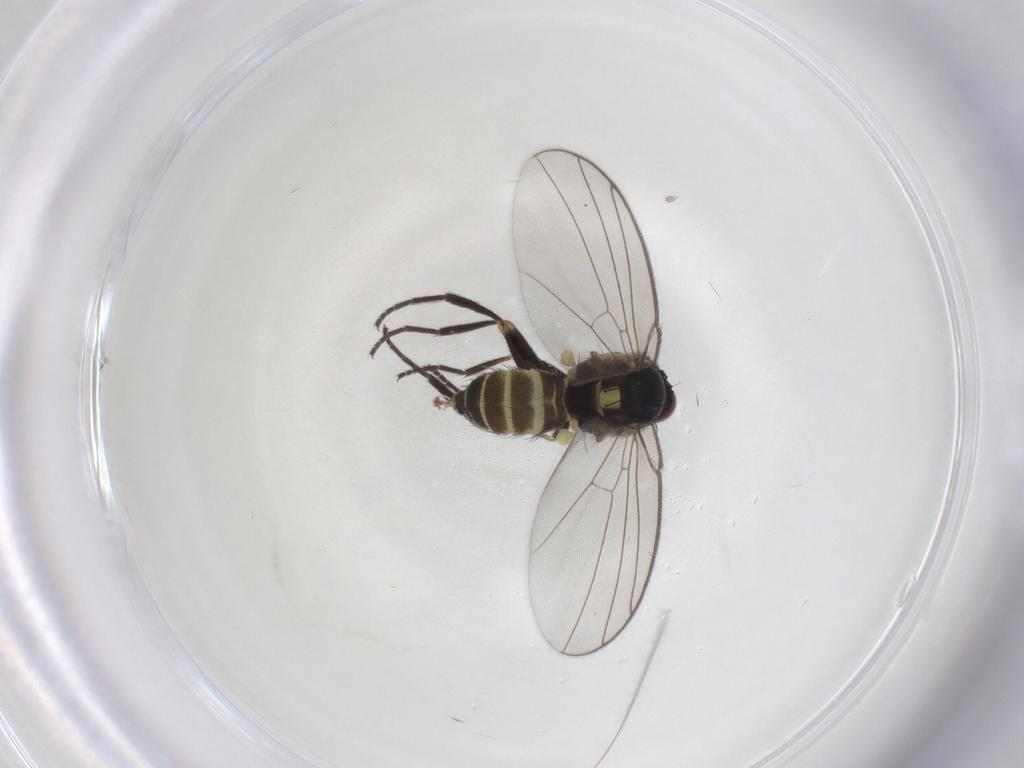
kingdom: Animalia
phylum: Arthropoda
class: Insecta
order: Diptera
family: Agromyzidae
